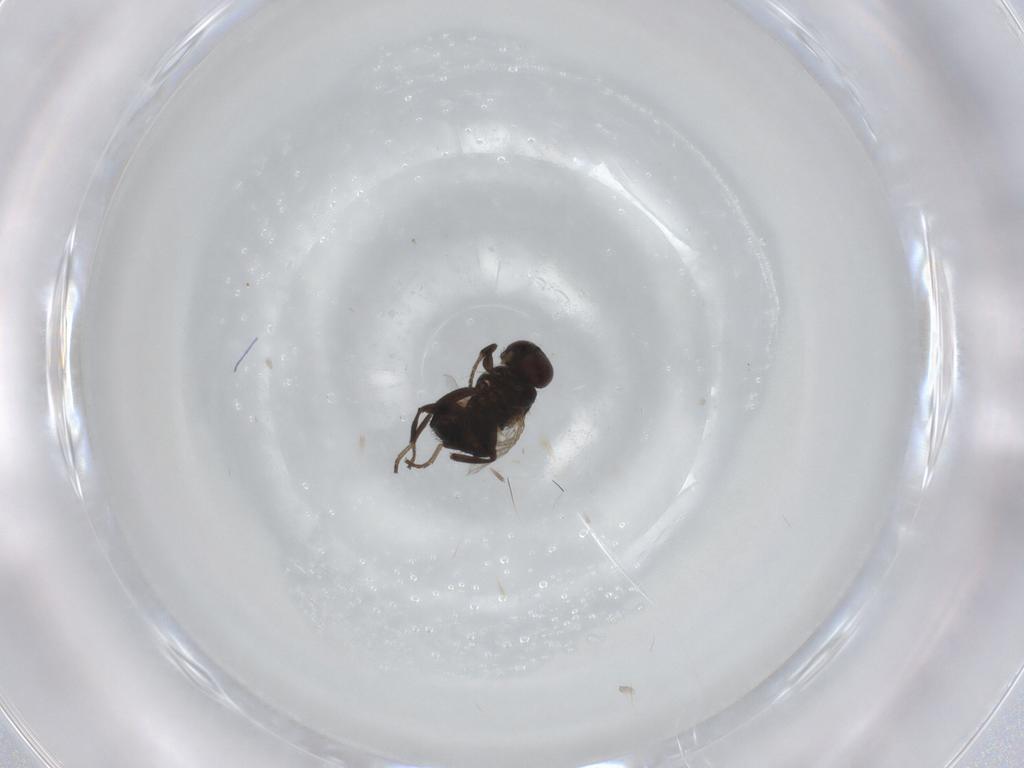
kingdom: Animalia
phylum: Arthropoda
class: Insecta
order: Diptera
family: Agromyzidae
